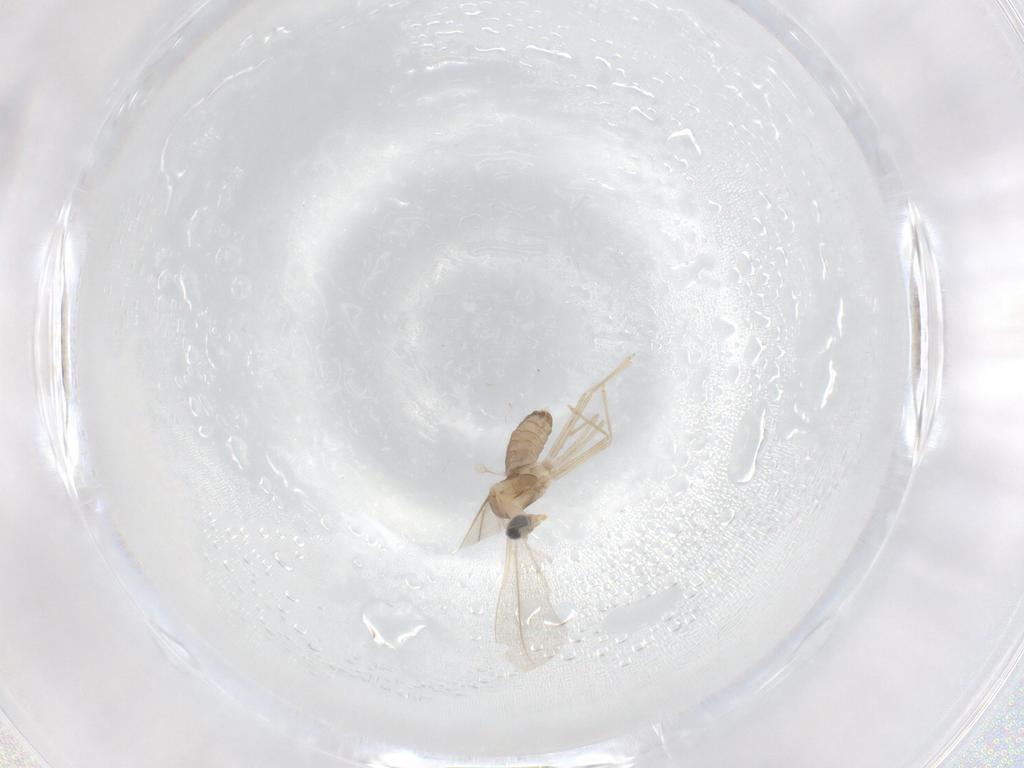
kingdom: Animalia
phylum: Arthropoda
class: Insecta
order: Diptera
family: Cecidomyiidae
